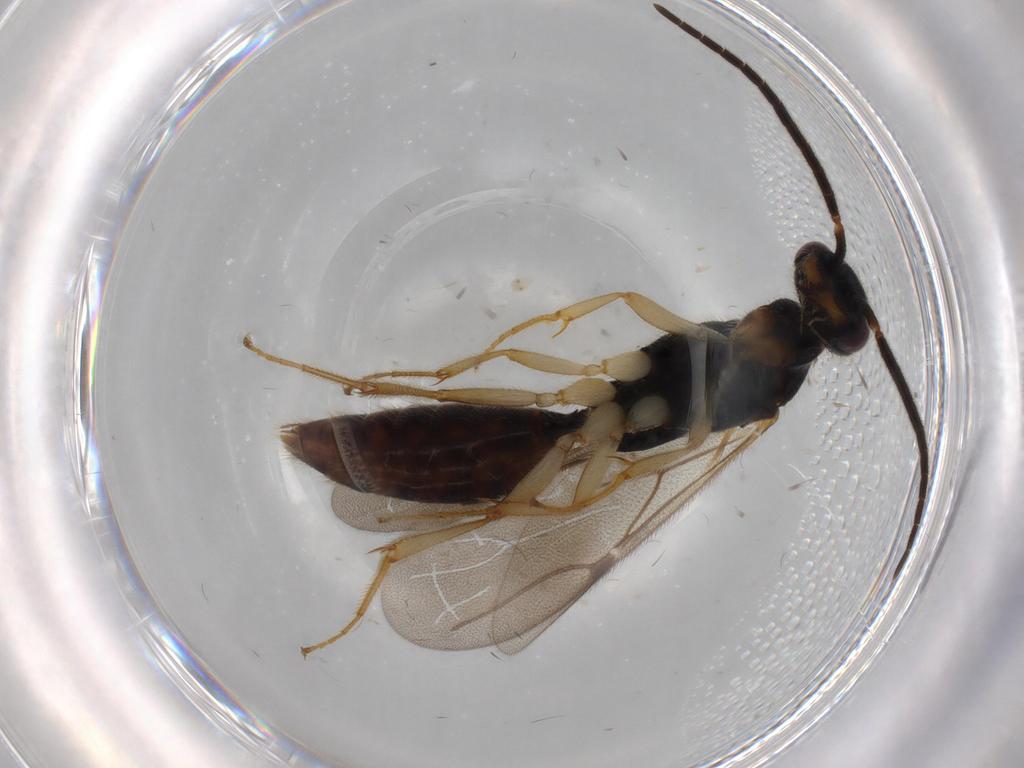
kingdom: Animalia
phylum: Arthropoda
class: Insecta
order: Hymenoptera
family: Bethylidae
